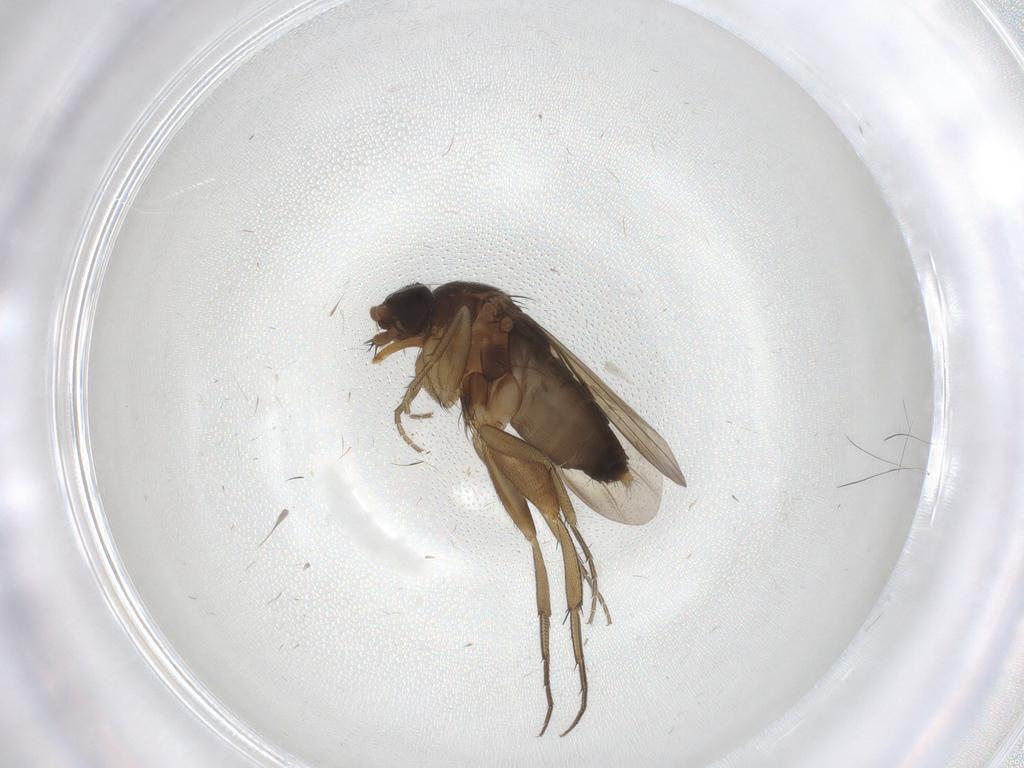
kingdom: Animalia
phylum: Arthropoda
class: Insecta
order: Diptera
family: Phoridae
